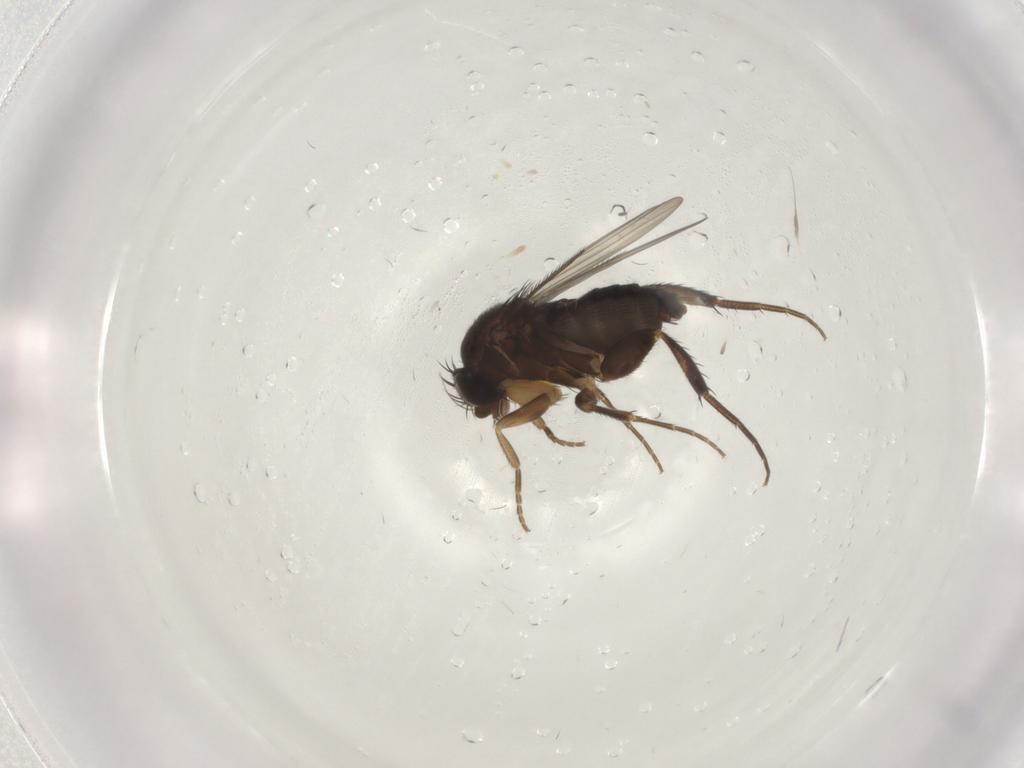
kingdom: Animalia
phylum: Arthropoda
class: Insecta
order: Diptera
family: Phoridae
